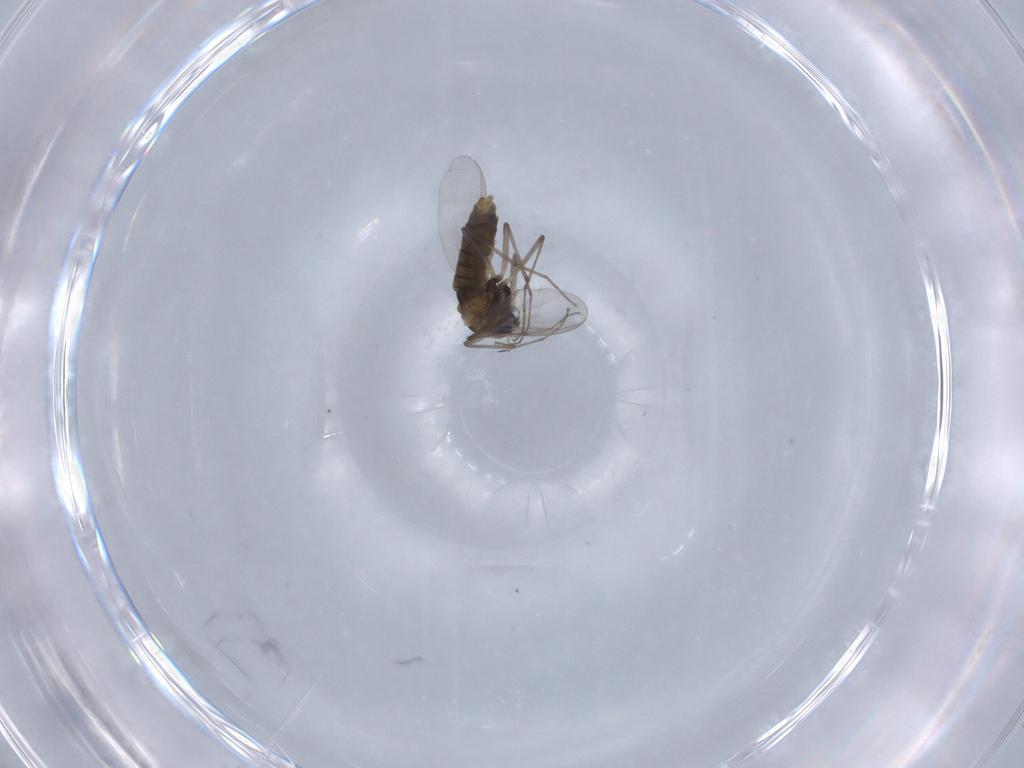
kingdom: Animalia
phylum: Arthropoda
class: Insecta
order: Diptera
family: Chironomidae
